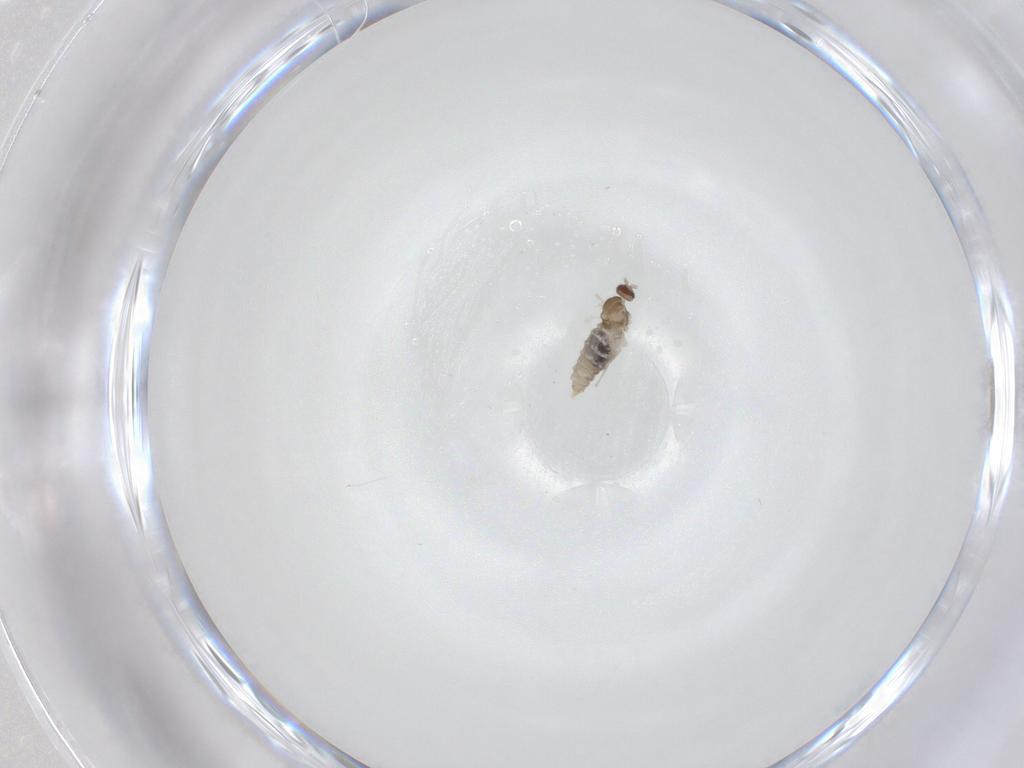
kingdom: Animalia
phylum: Arthropoda
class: Insecta
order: Diptera
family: Cecidomyiidae
